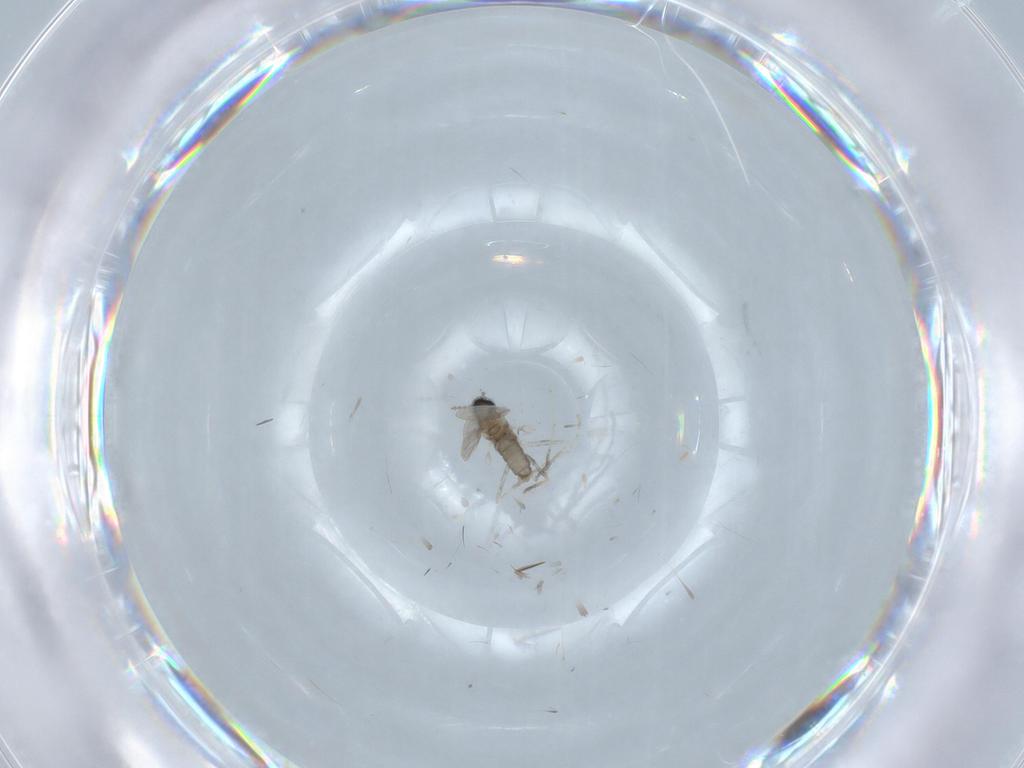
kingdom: Animalia
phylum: Arthropoda
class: Insecta
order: Diptera
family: Cecidomyiidae
